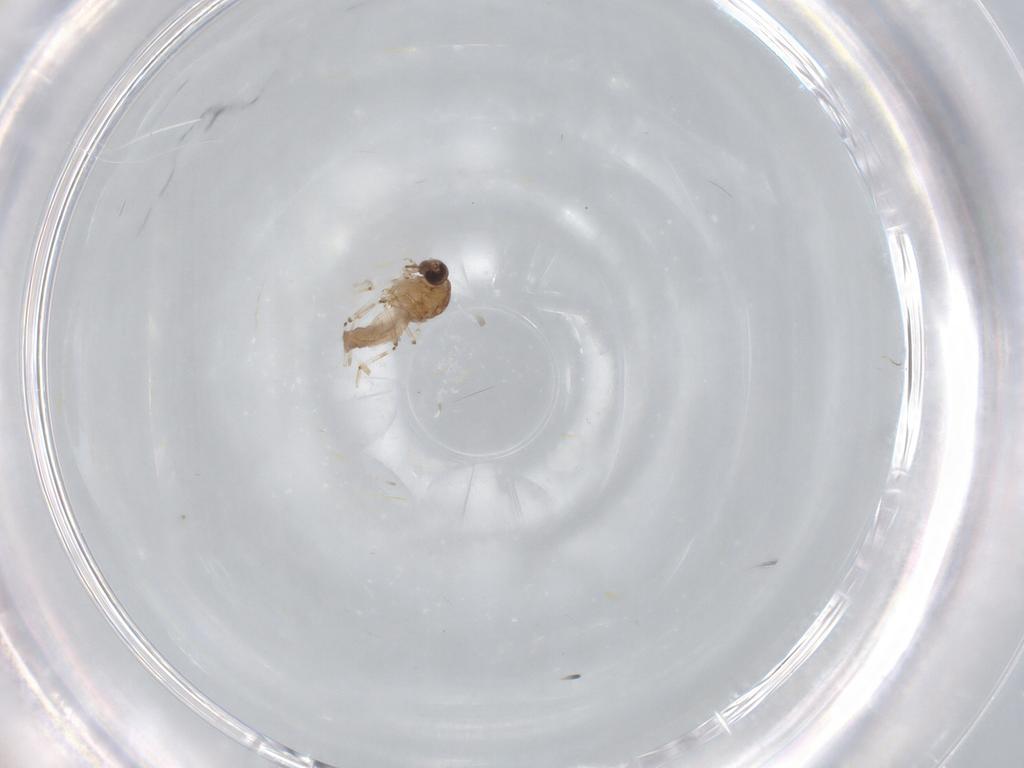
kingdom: Animalia
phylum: Arthropoda
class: Insecta
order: Diptera
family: Ceratopogonidae
